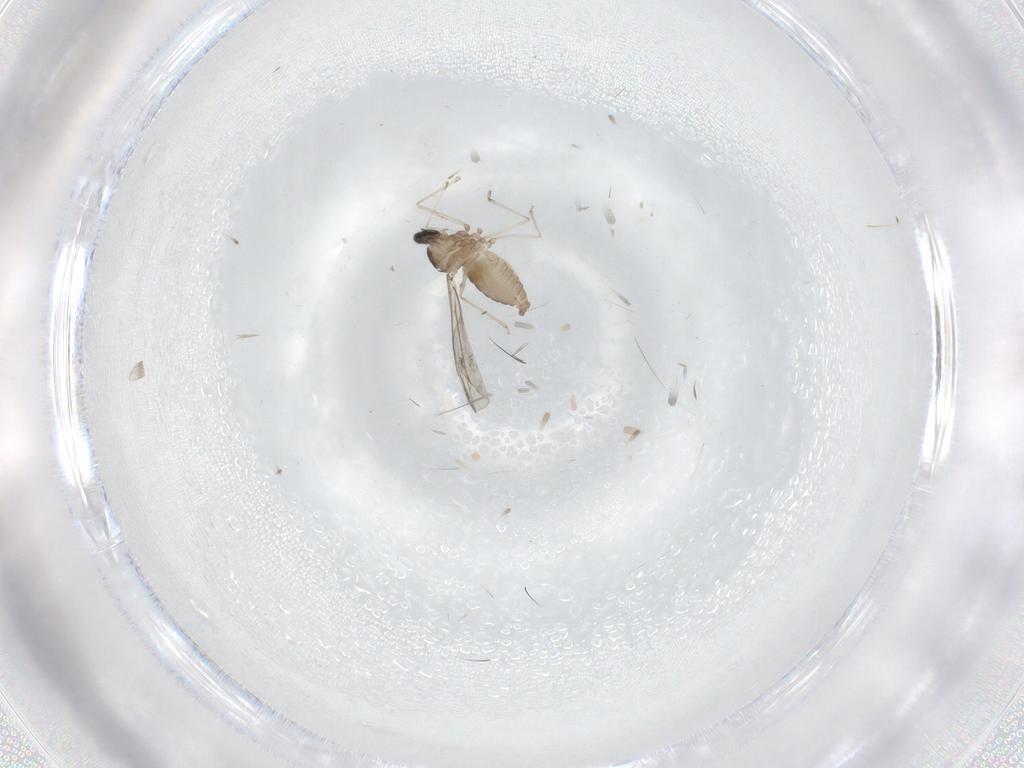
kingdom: Animalia
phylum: Arthropoda
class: Insecta
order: Diptera
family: Cecidomyiidae
